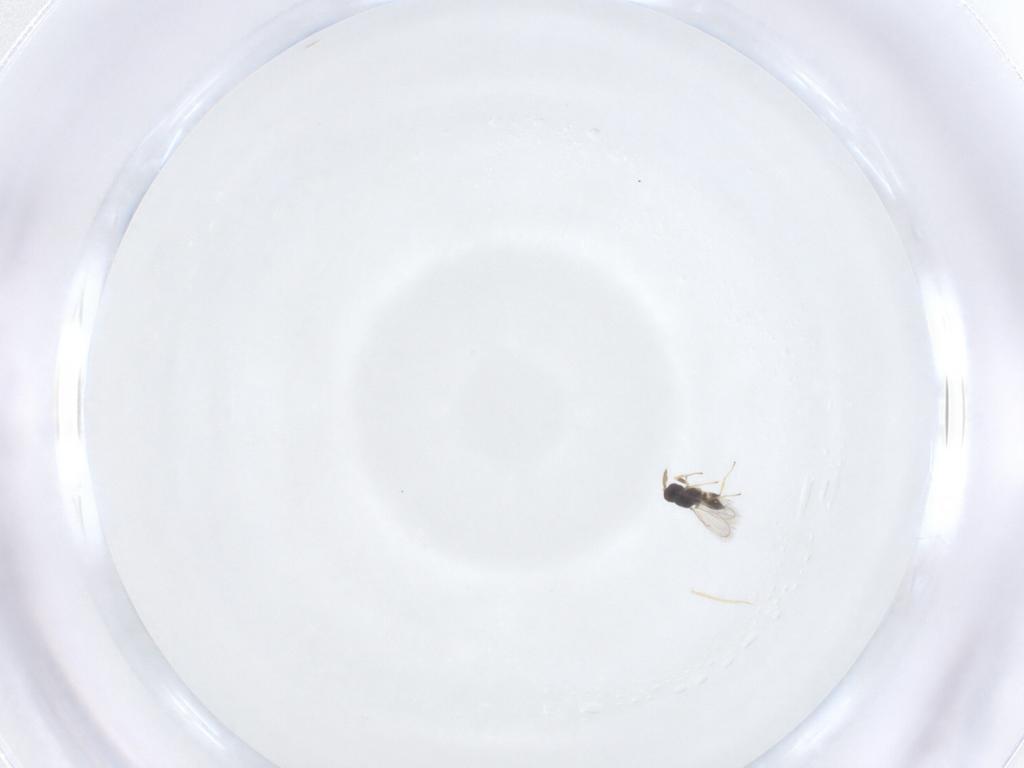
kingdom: Animalia
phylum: Arthropoda
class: Insecta
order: Hymenoptera
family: Eulophidae
